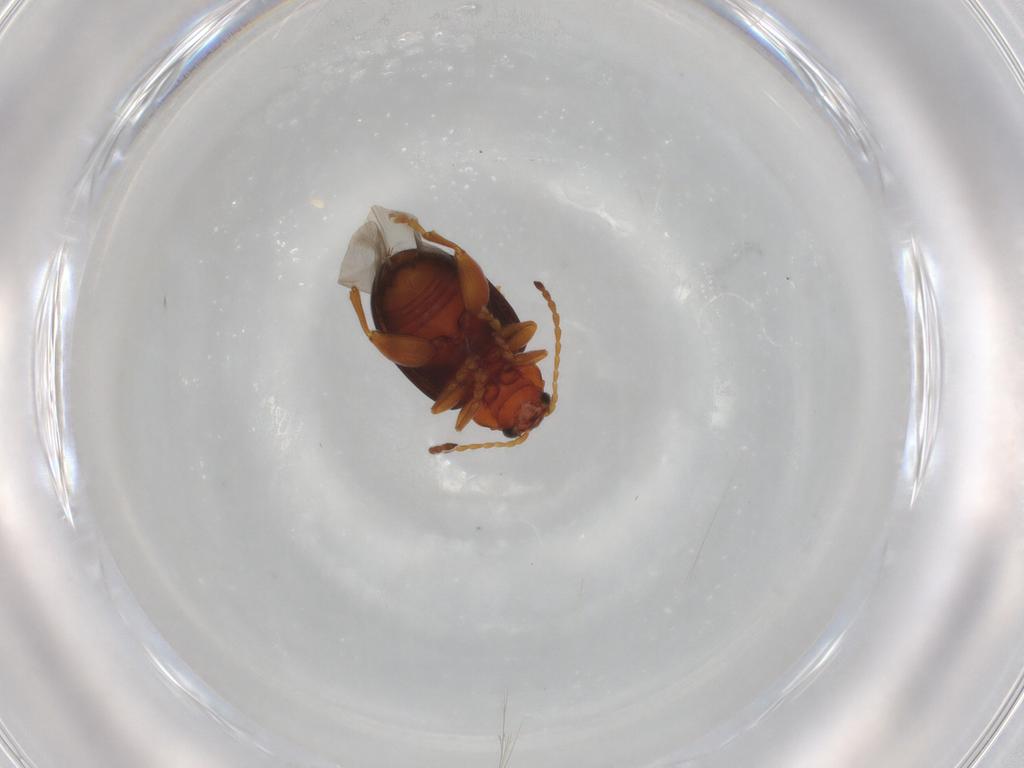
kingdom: Animalia
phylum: Arthropoda
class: Insecta
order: Coleoptera
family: Chrysomelidae
